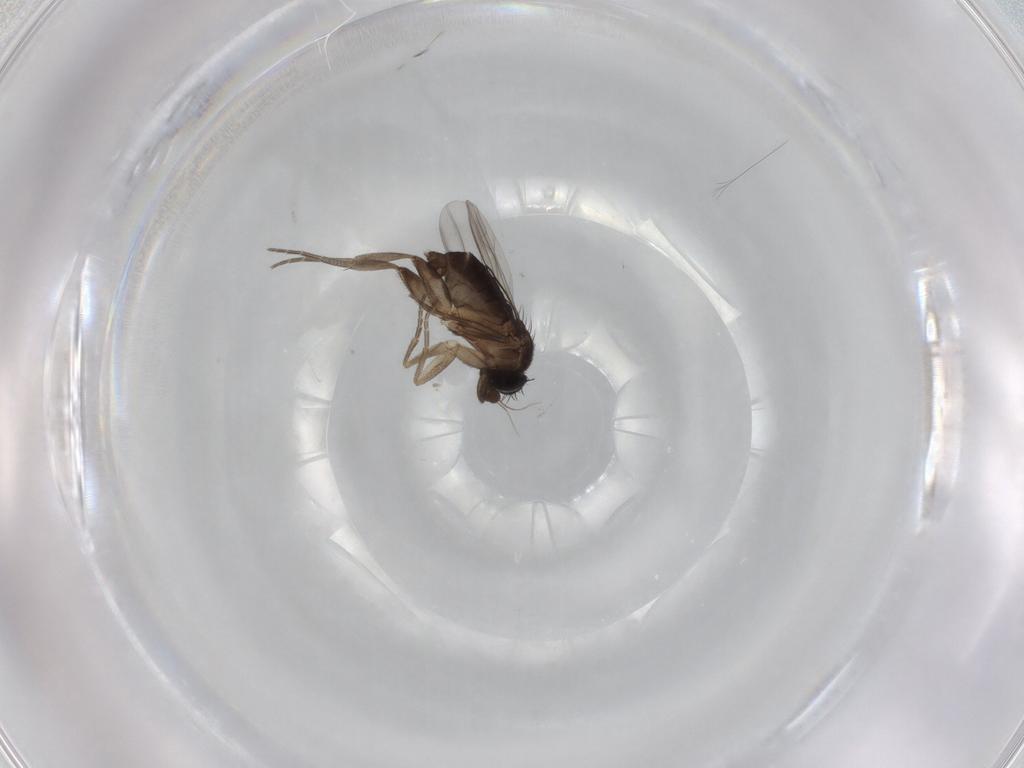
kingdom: Animalia
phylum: Arthropoda
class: Insecta
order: Diptera
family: Phoridae
